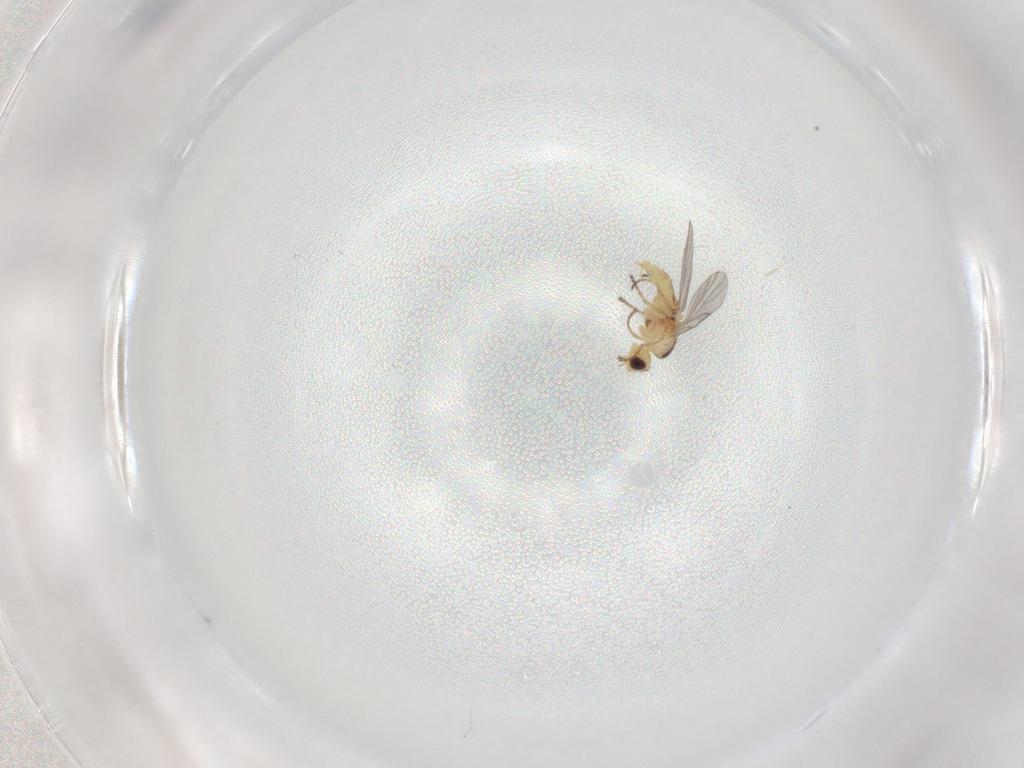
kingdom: Animalia
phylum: Arthropoda
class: Insecta
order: Diptera
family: Agromyzidae
